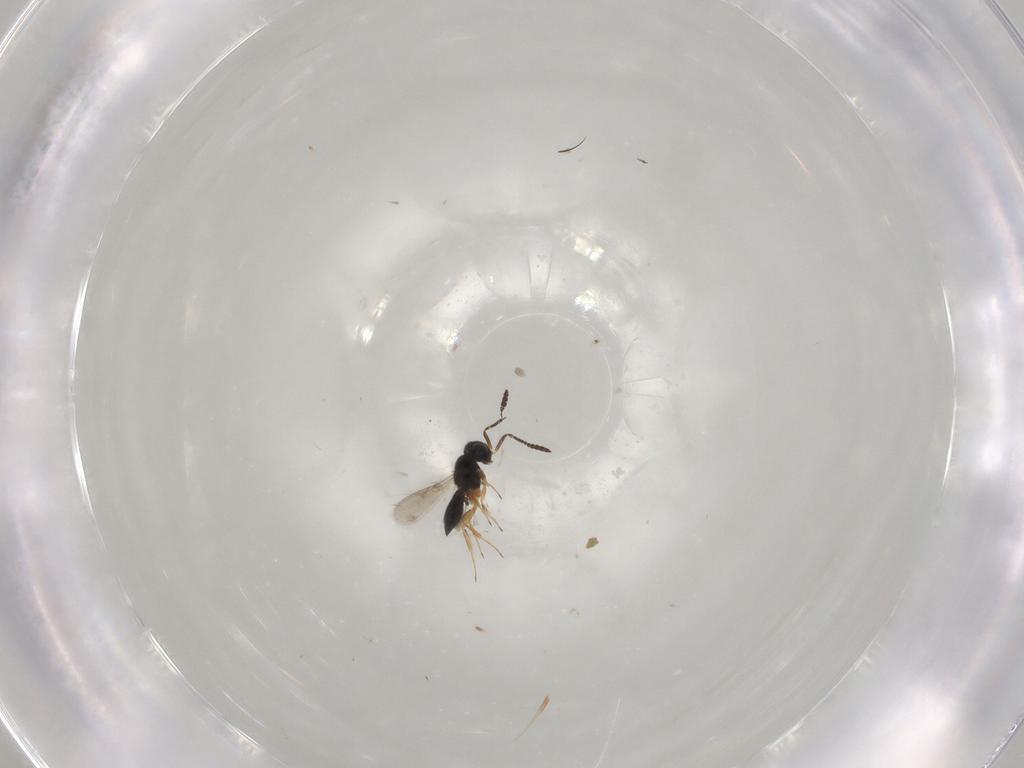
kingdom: Animalia
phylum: Arthropoda
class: Insecta
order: Hymenoptera
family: Scelionidae
